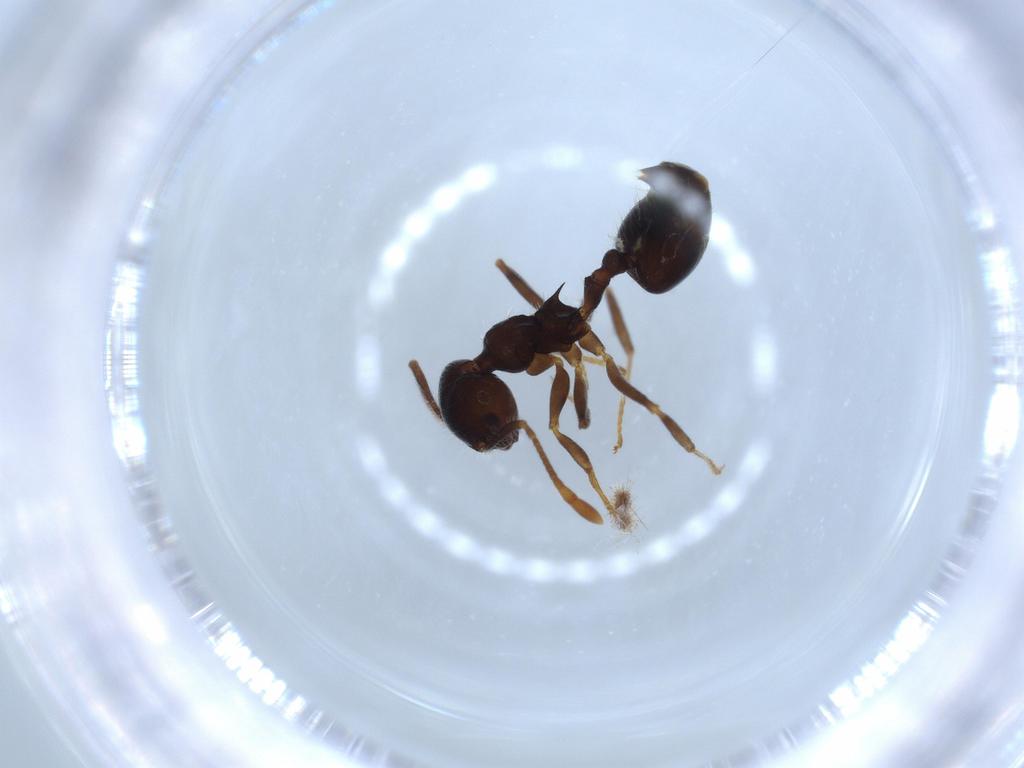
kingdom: Animalia
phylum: Arthropoda
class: Insecta
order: Hymenoptera
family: Formicidae
